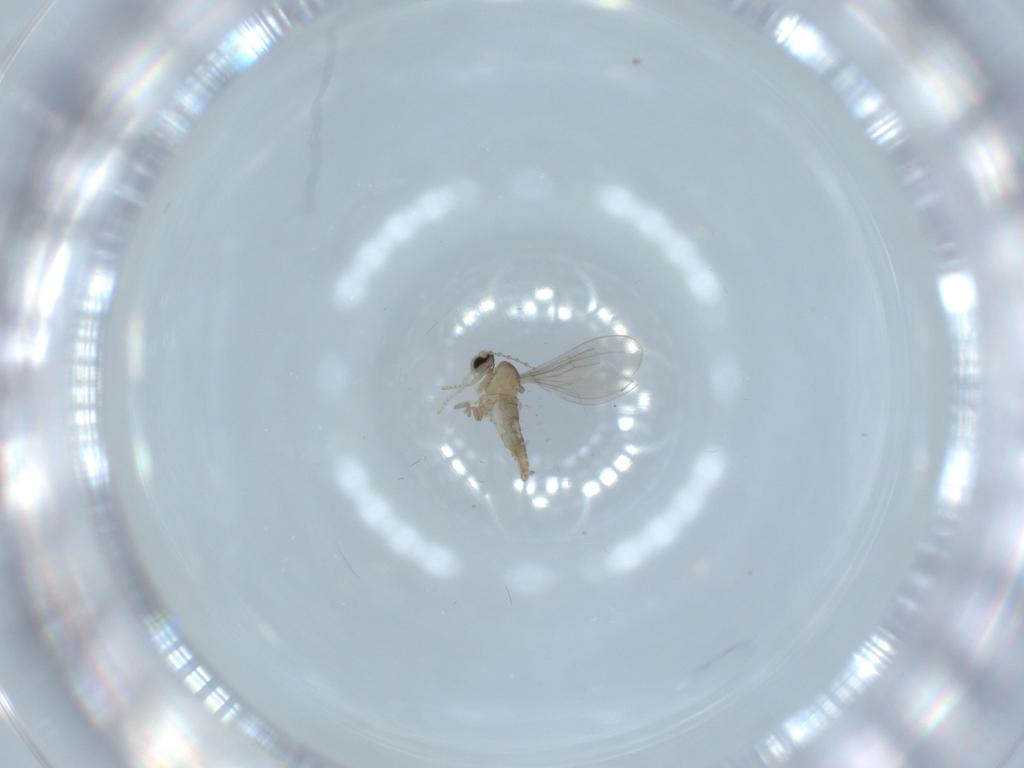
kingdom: Animalia
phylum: Arthropoda
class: Insecta
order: Diptera
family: Cecidomyiidae
